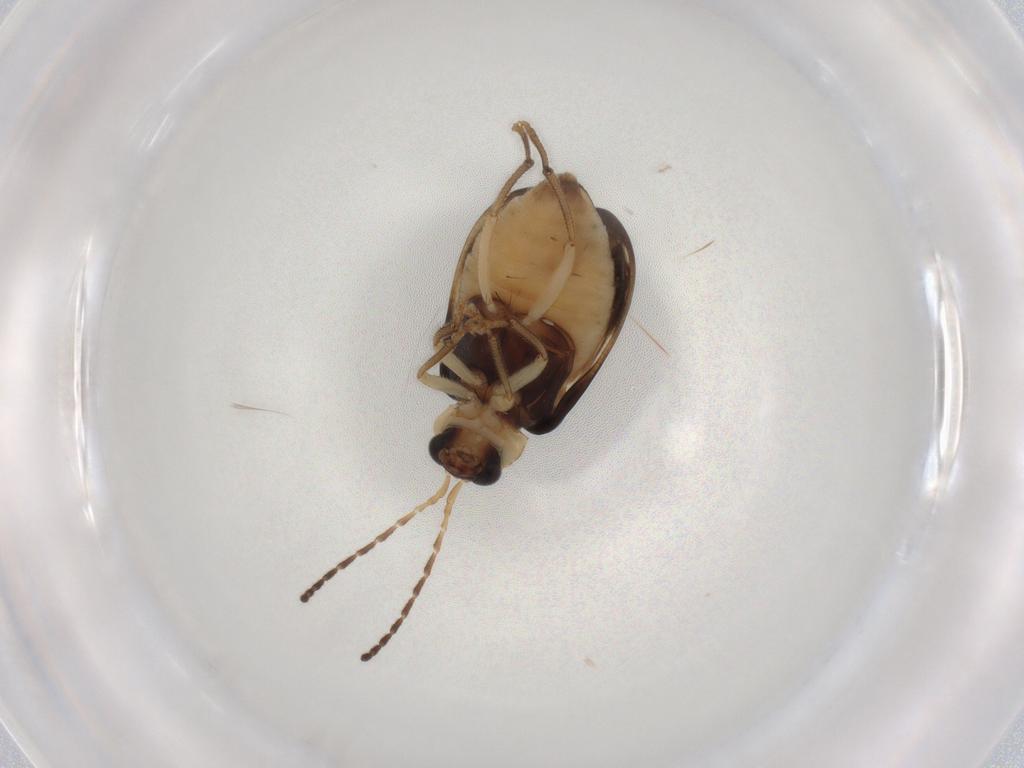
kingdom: Animalia
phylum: Arthropoda
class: Insecta
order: Coleoptera
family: Chrysomelidae
